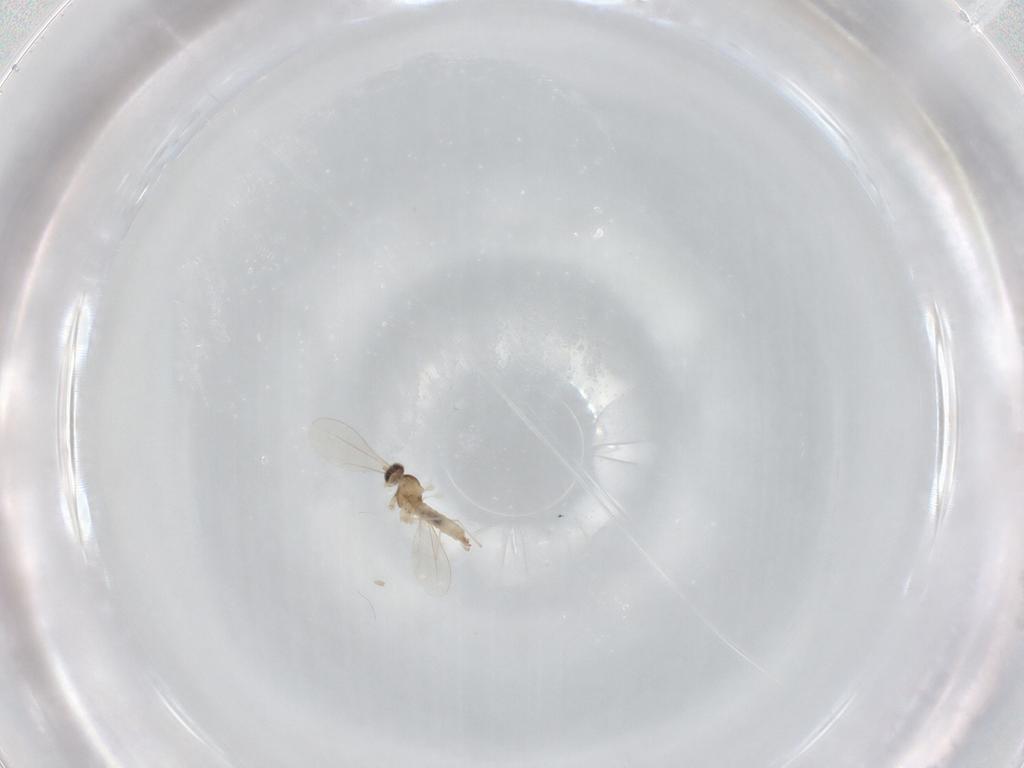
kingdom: Animalia
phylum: Arthropoda
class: Insecta
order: Diptera
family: Cecidomyiidae
